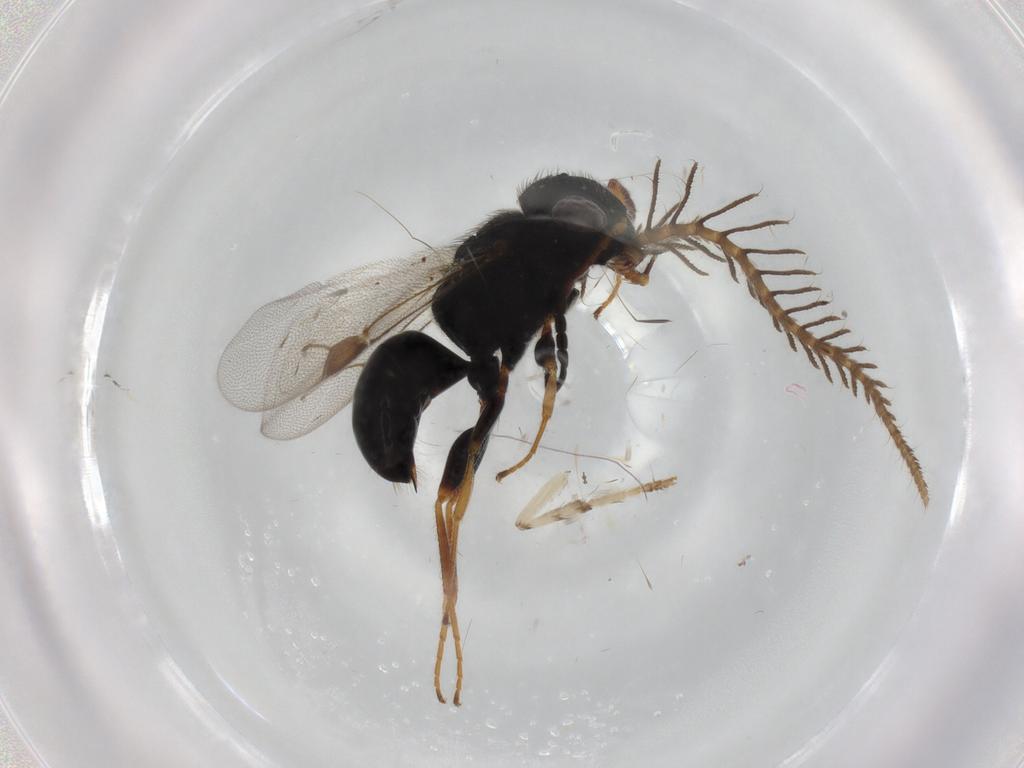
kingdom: Animalia
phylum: Arthropoda
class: Insecta
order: Hymenoptera
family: Dryinidae
